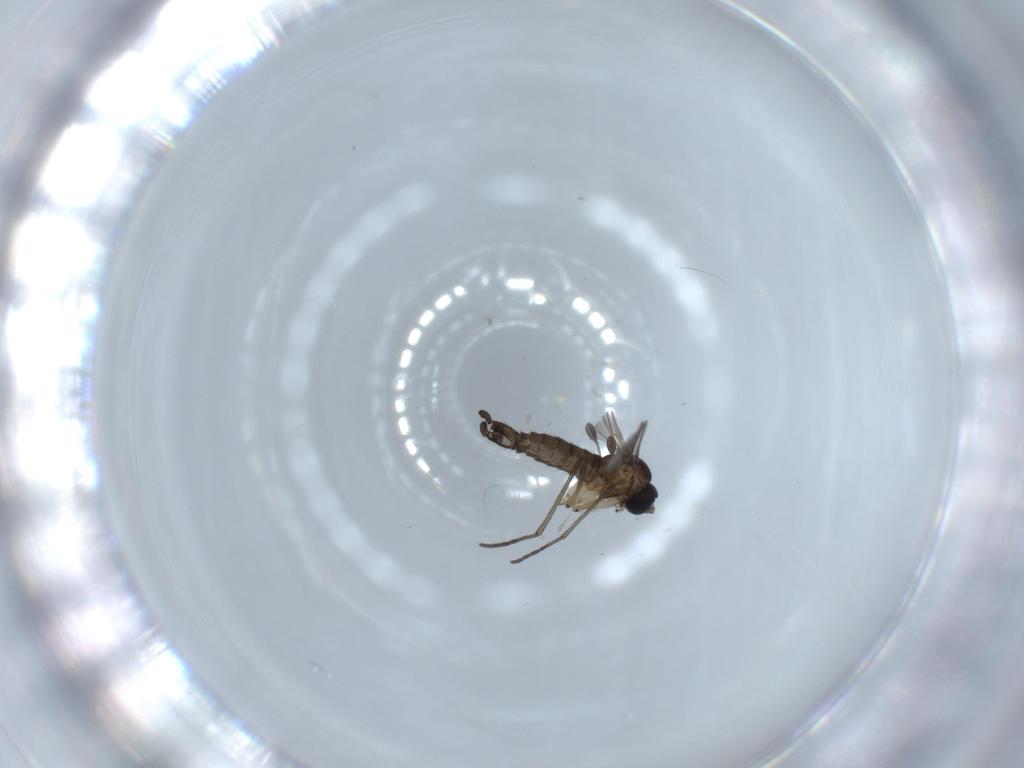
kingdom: Animalia
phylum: Arthropoda
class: Insecta
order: Diptera
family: Sciaridae
